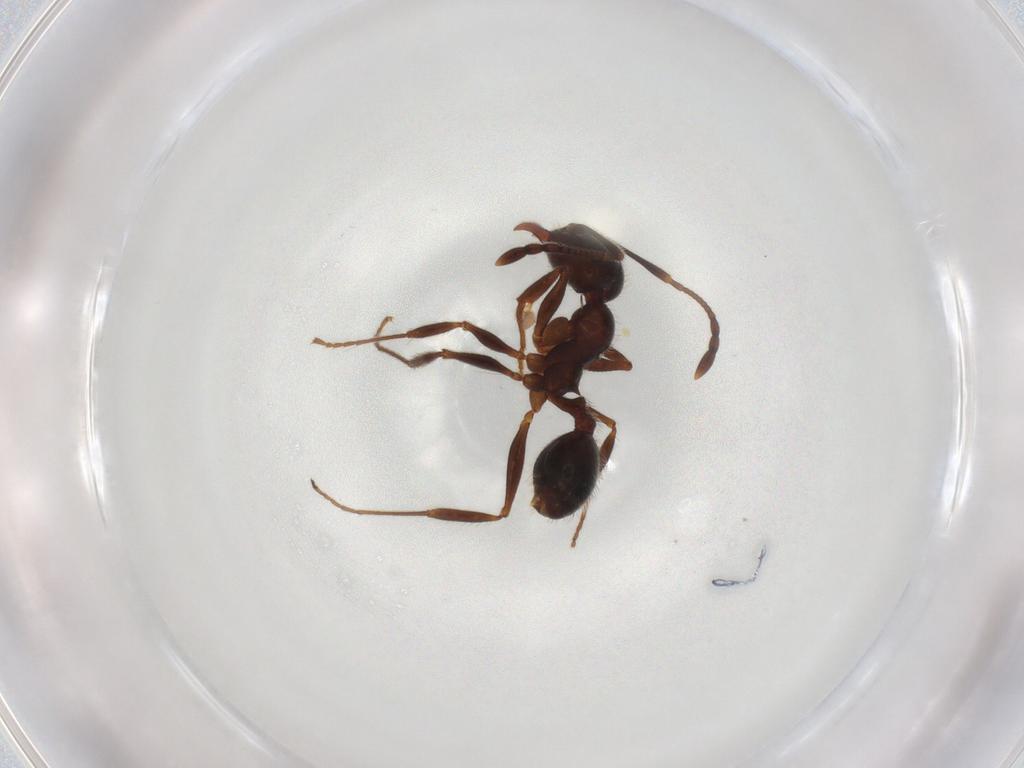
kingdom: Animalia
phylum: Arthropoda
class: Insecta
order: Hymenoptera
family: Formicidae
